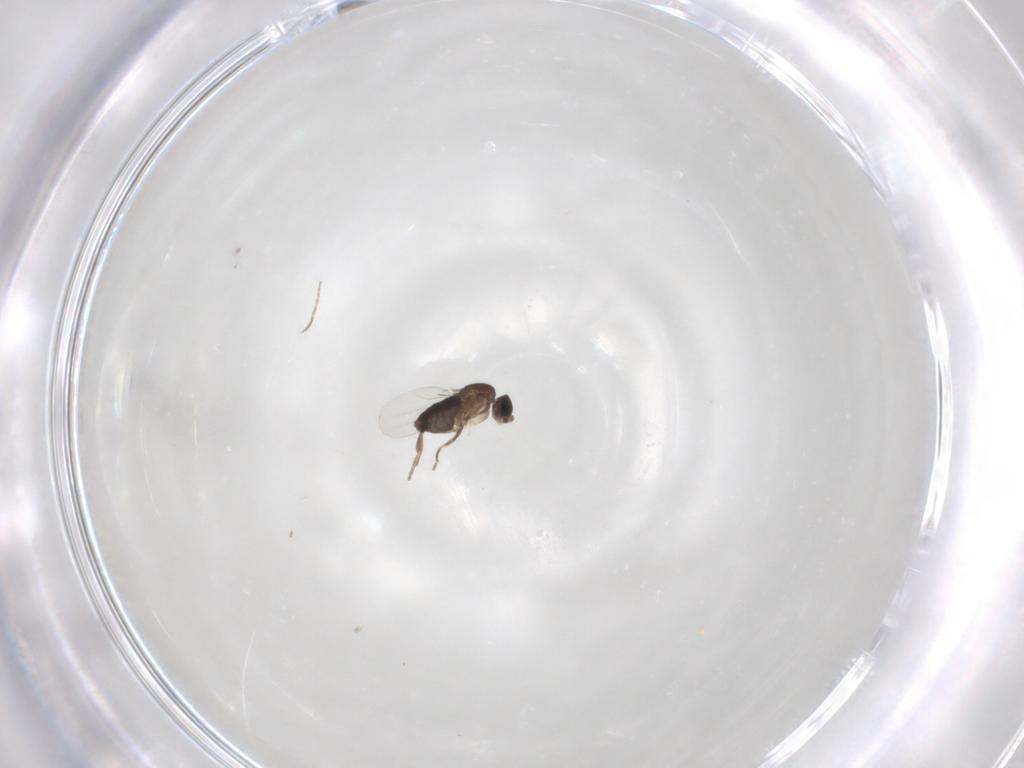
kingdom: Animalia
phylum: Arthropoda
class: Insecta
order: Diptera
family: Phoridae
